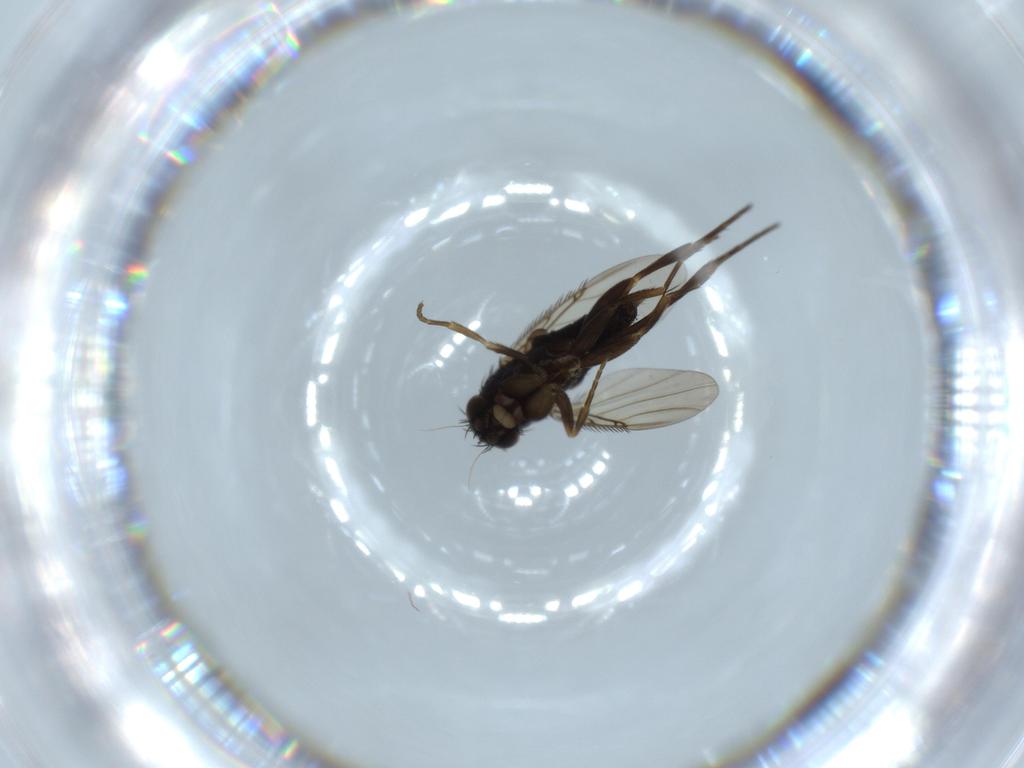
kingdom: Animalia
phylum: Arthropoda
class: Insecta
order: Diptera
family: Phoridae
